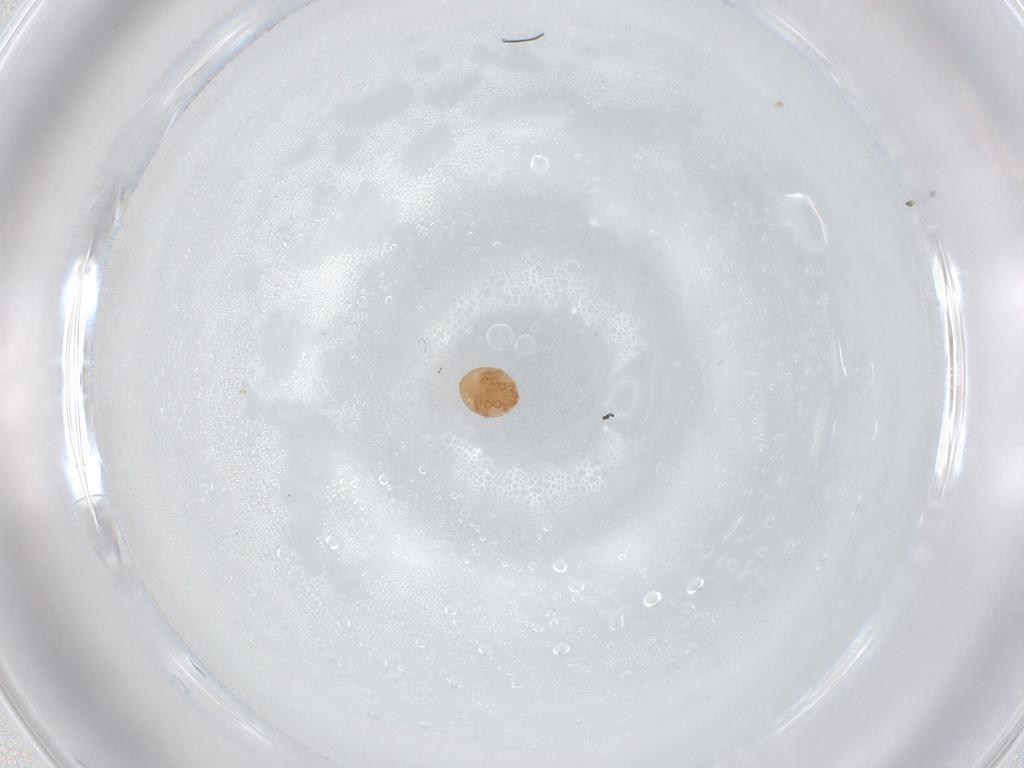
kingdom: Animalia
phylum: Arthropoda
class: Arachnida
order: Mesostigmata
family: Trematuridae
